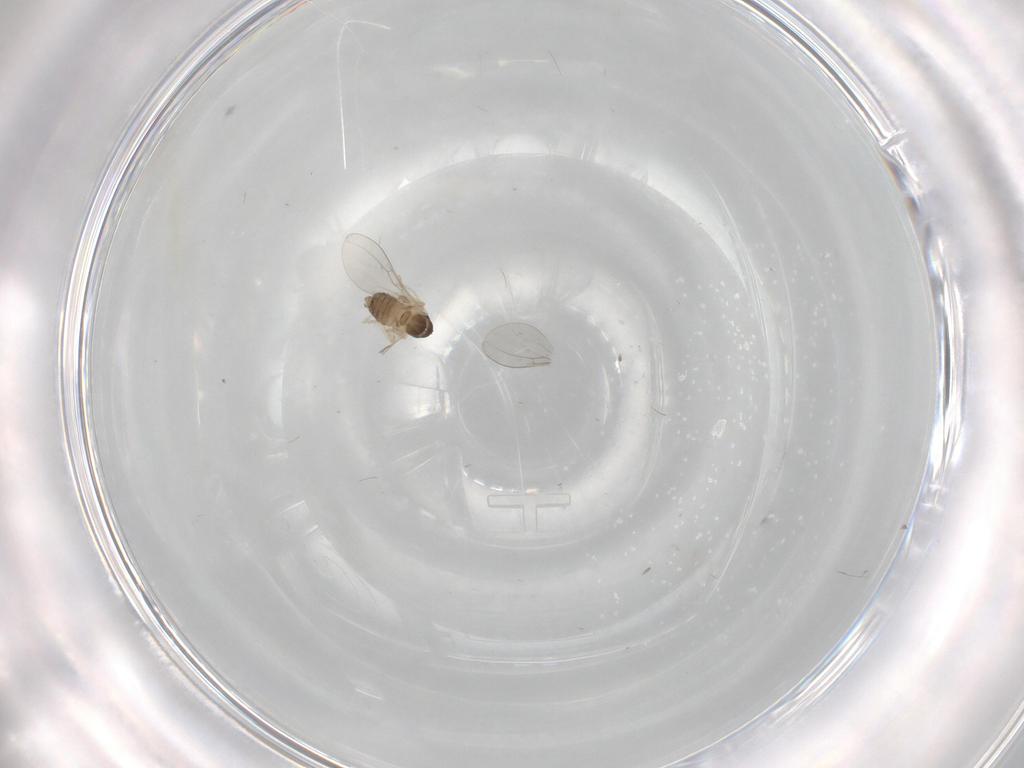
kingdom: Animalia
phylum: Arthropoda
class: Insecta
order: Diptera
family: Cecidomyiidae
